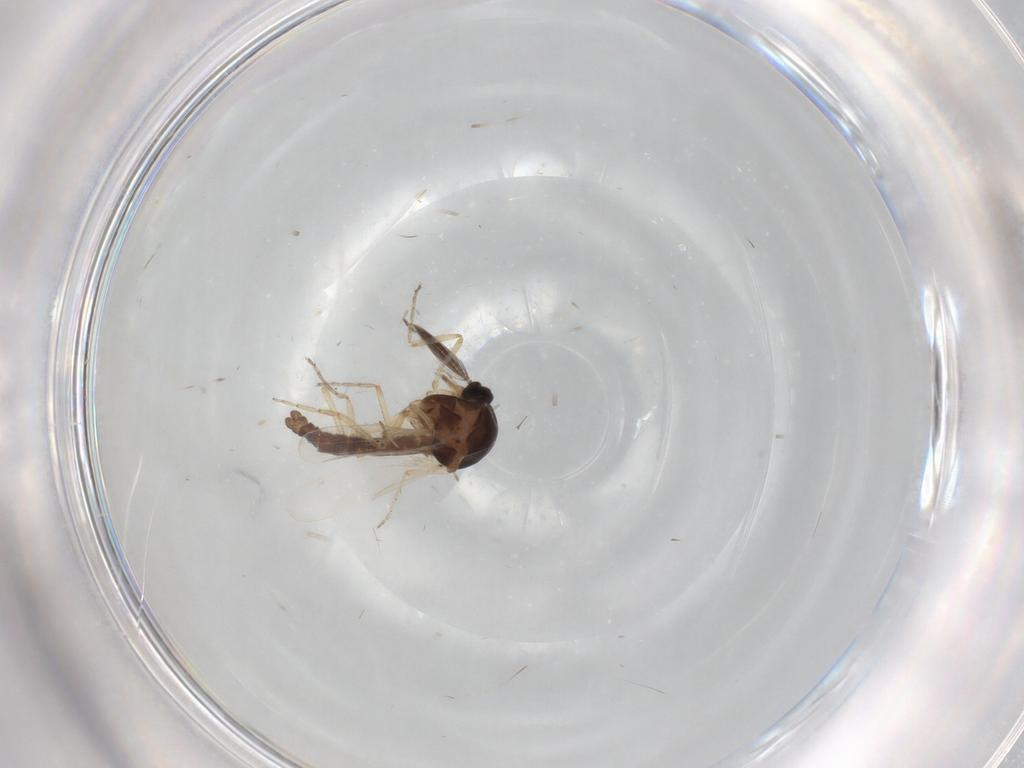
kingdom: Animalia
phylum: Arthropoda
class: Insecta
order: Diptera
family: Ceratopogonidae
